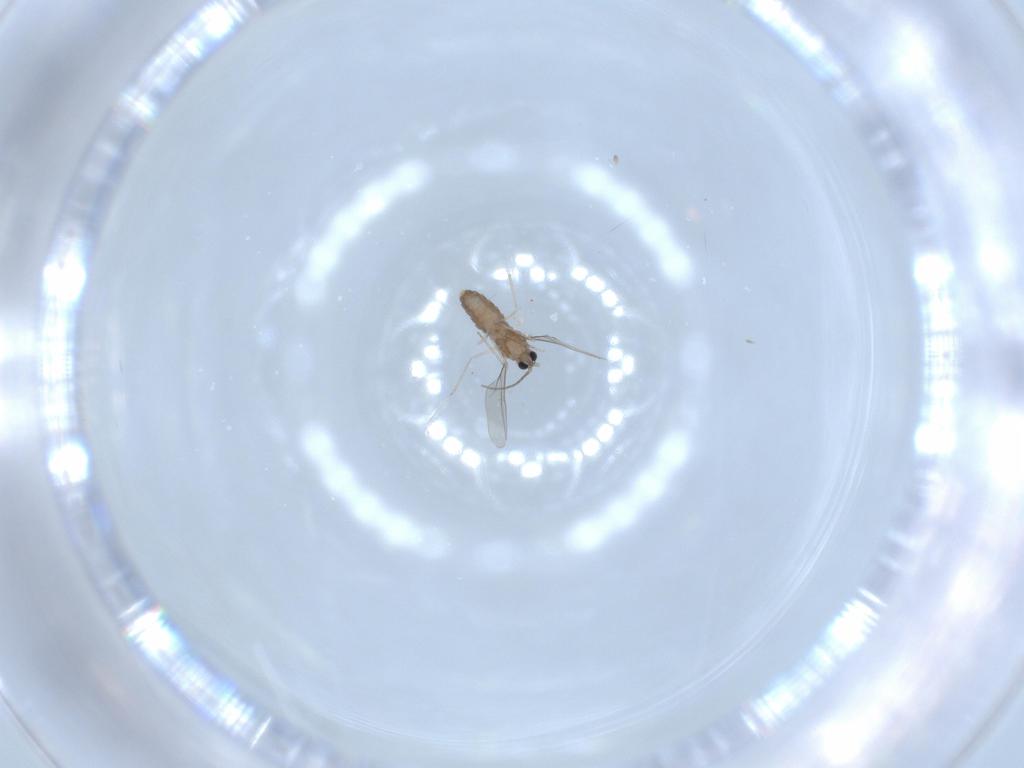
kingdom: Animalia
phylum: Arthropoda
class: Insecta
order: Diptera
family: Cecidomyiidae
